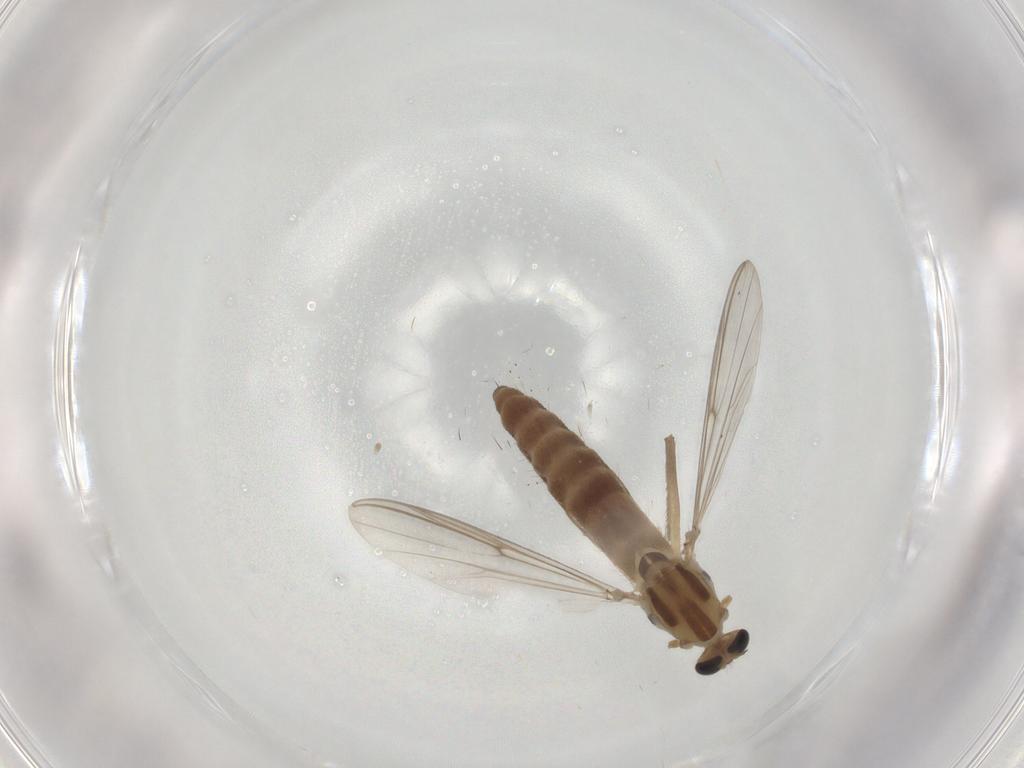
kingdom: Animalia
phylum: Arthropoda
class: Insecta
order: Diptera
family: Chironomidae
